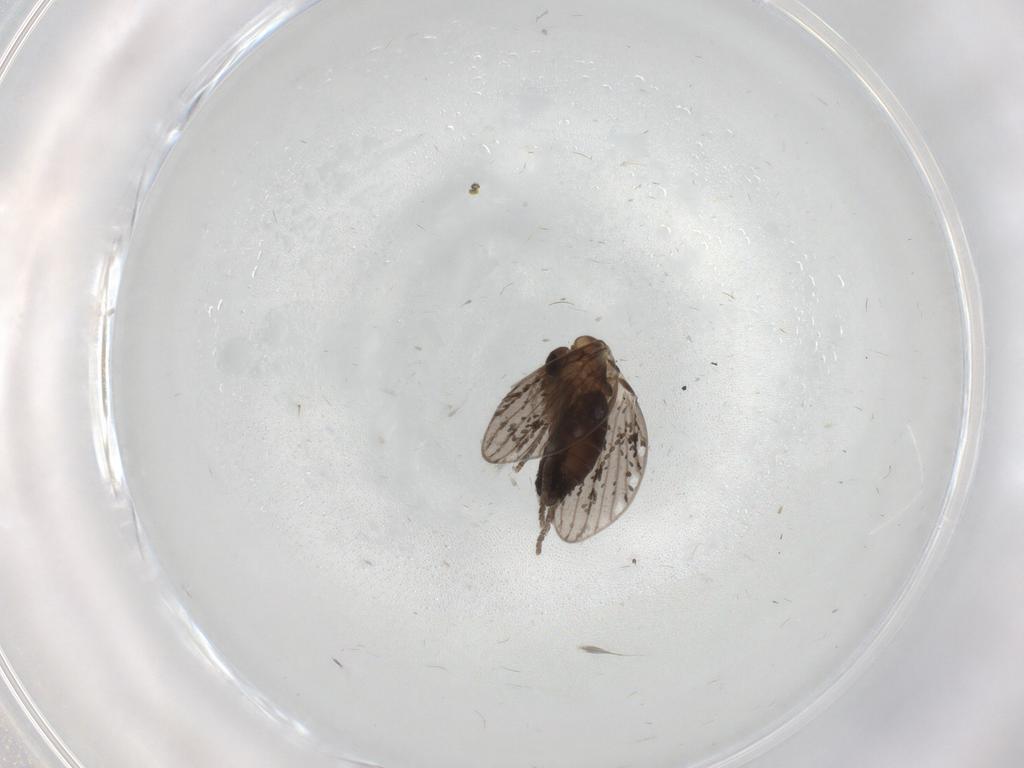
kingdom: Animalia
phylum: Arthropoda
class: Insecta
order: Diptera
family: Psychodidae
